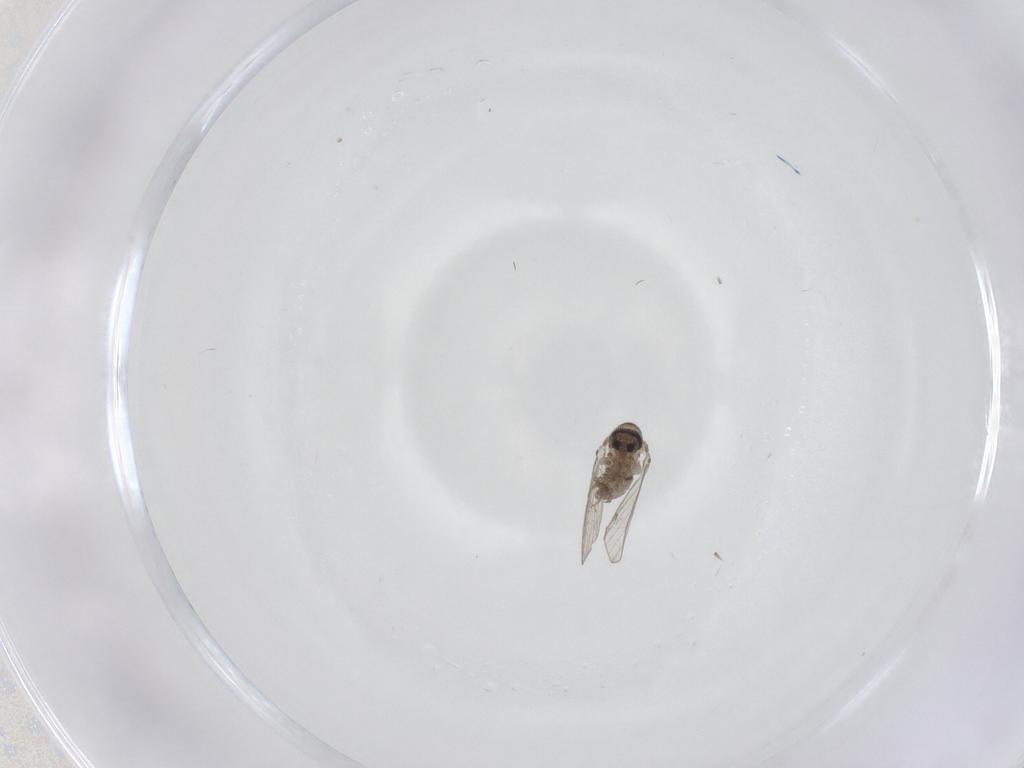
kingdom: Animalia
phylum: Arthropoda
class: Insecta
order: Diptera
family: Psychodidae
